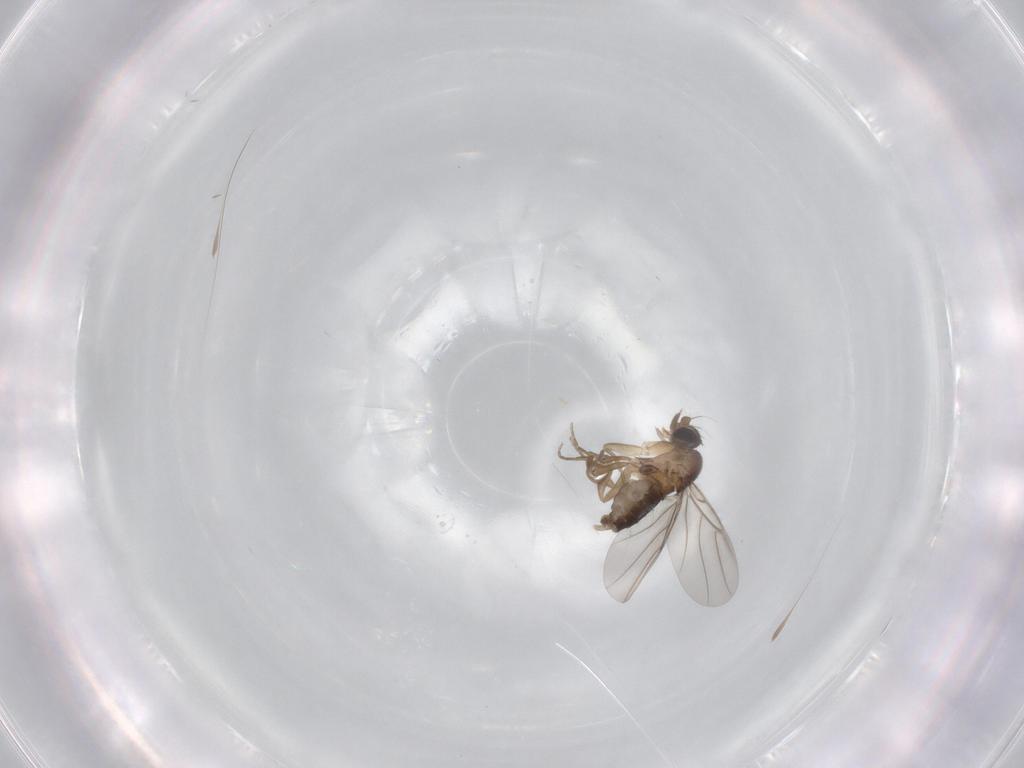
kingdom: Animalia
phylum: Arthropoda
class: Insecta
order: Diptera
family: Phoridae
